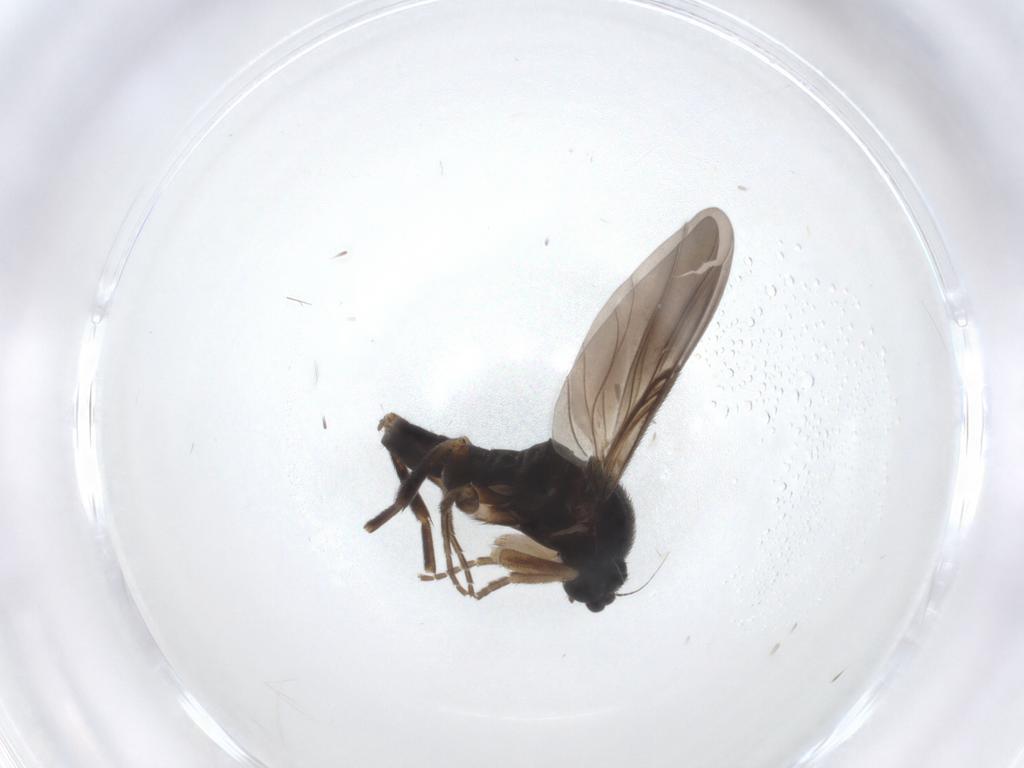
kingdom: Animalia
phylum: Arthropoda
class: Insecta
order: Diptera
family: Phoridae
